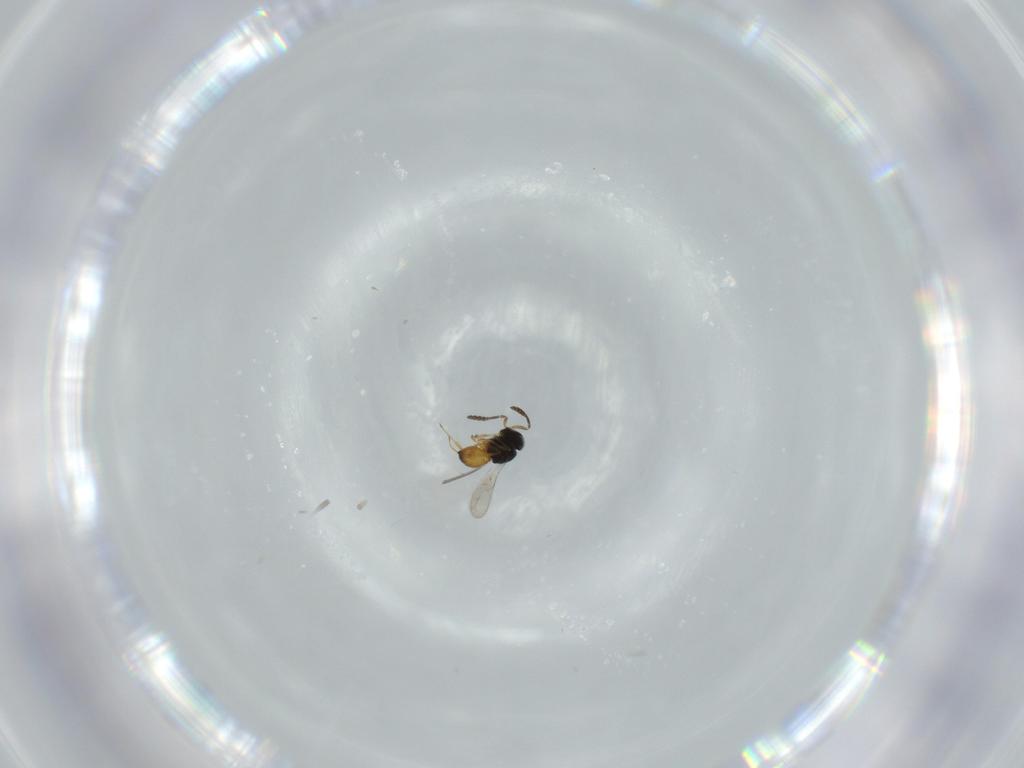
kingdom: Animalia
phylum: Arthropoda
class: Insecta
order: Hymenoptera
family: Scelionidae
